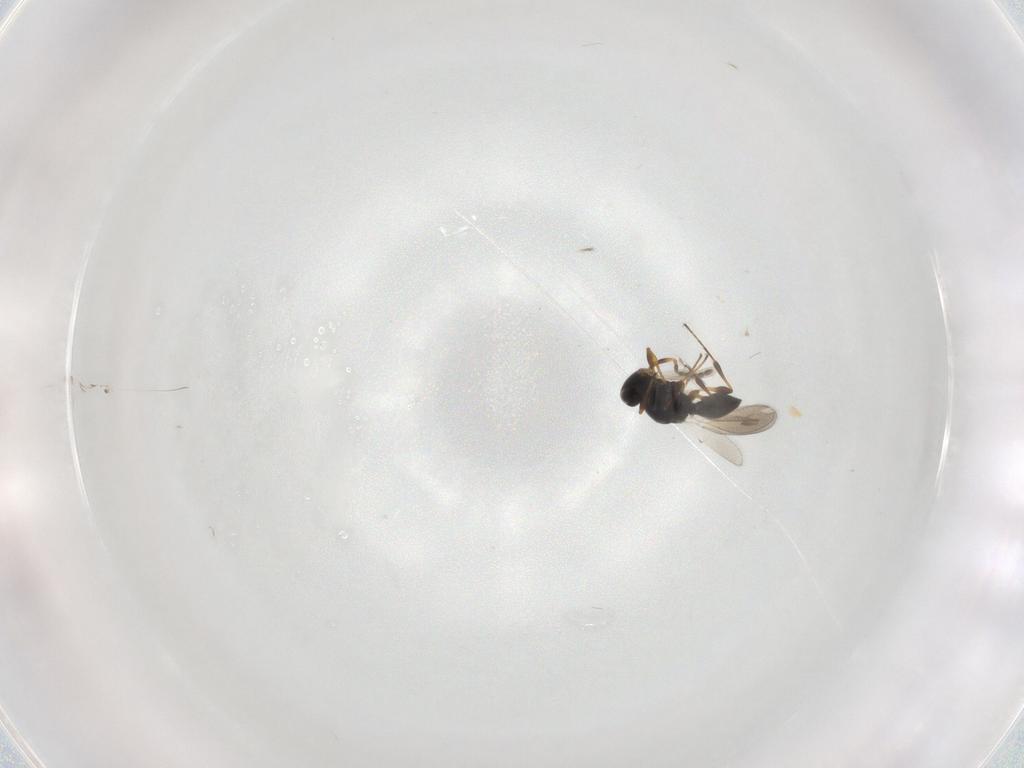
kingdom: Animalia
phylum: Arthropoda
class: Insecta
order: Hymenoptera
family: Platygastridae
